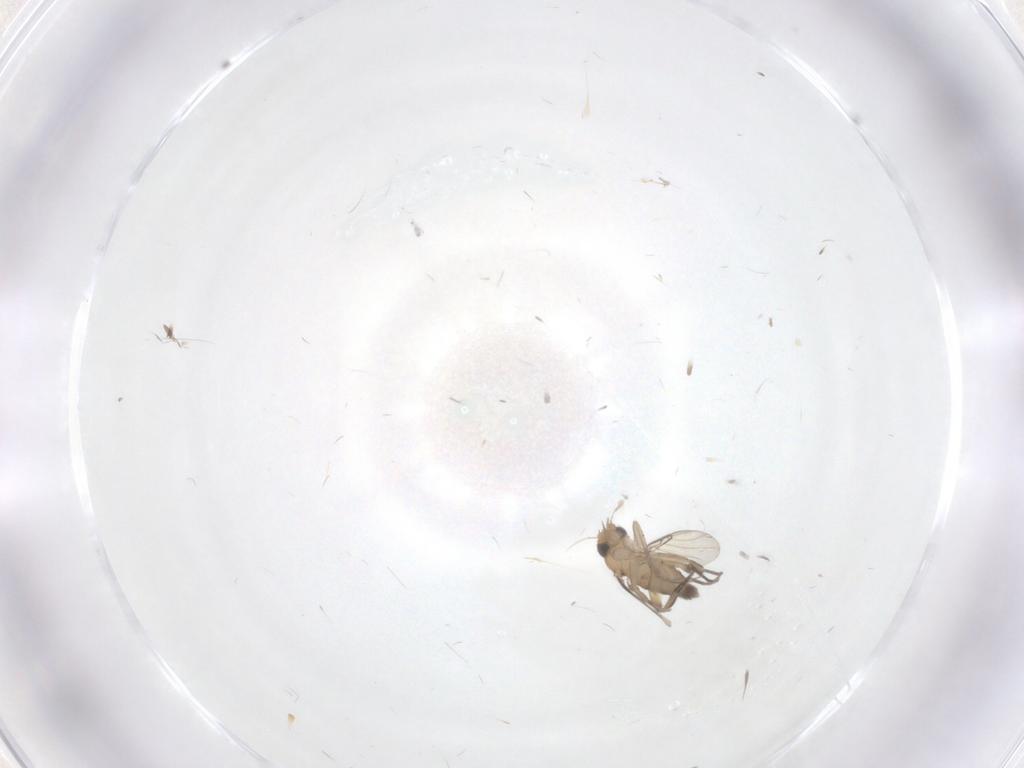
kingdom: Animalia
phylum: Arthropoda
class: Insecta
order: Diptera
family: Phoridae
